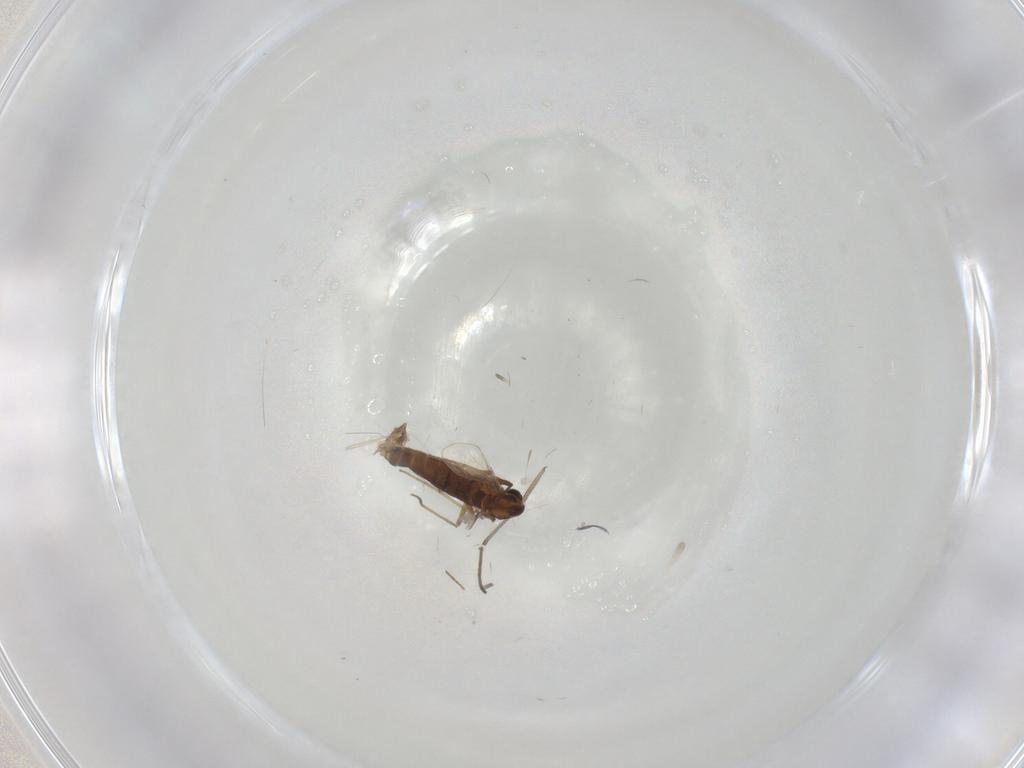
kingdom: Animalia
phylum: Arthropoda
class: Insecta
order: Diptera
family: Chironomidae
